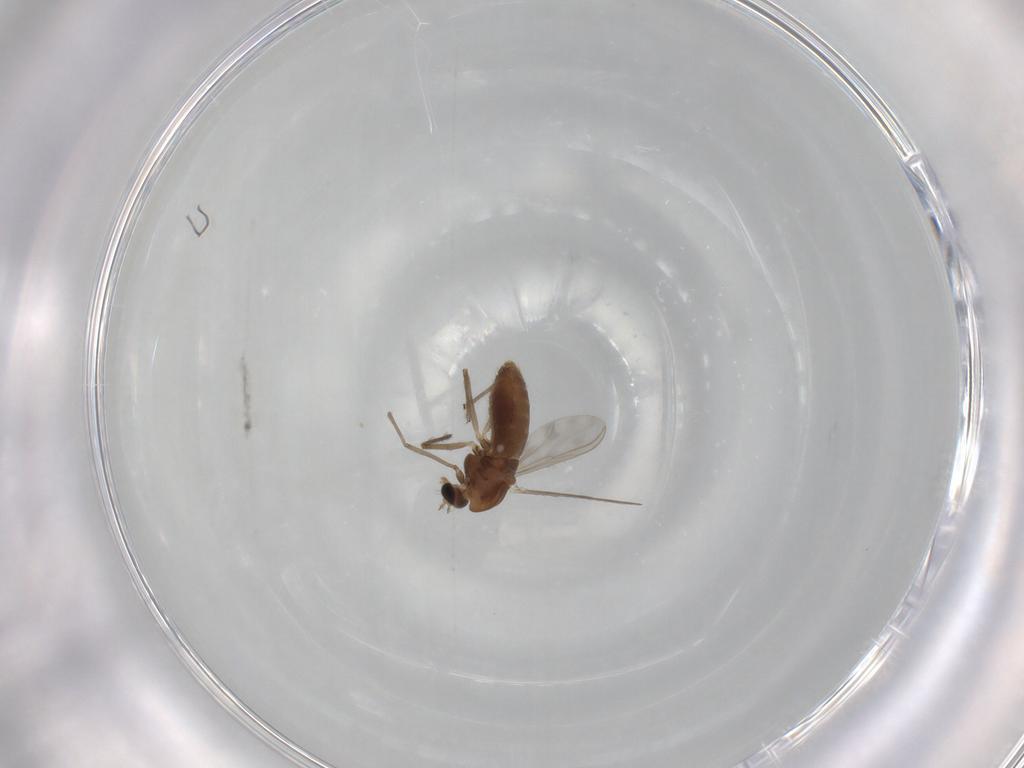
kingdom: Animalia
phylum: Arthropoda
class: Insecta
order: Diptera
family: Chironomidae
